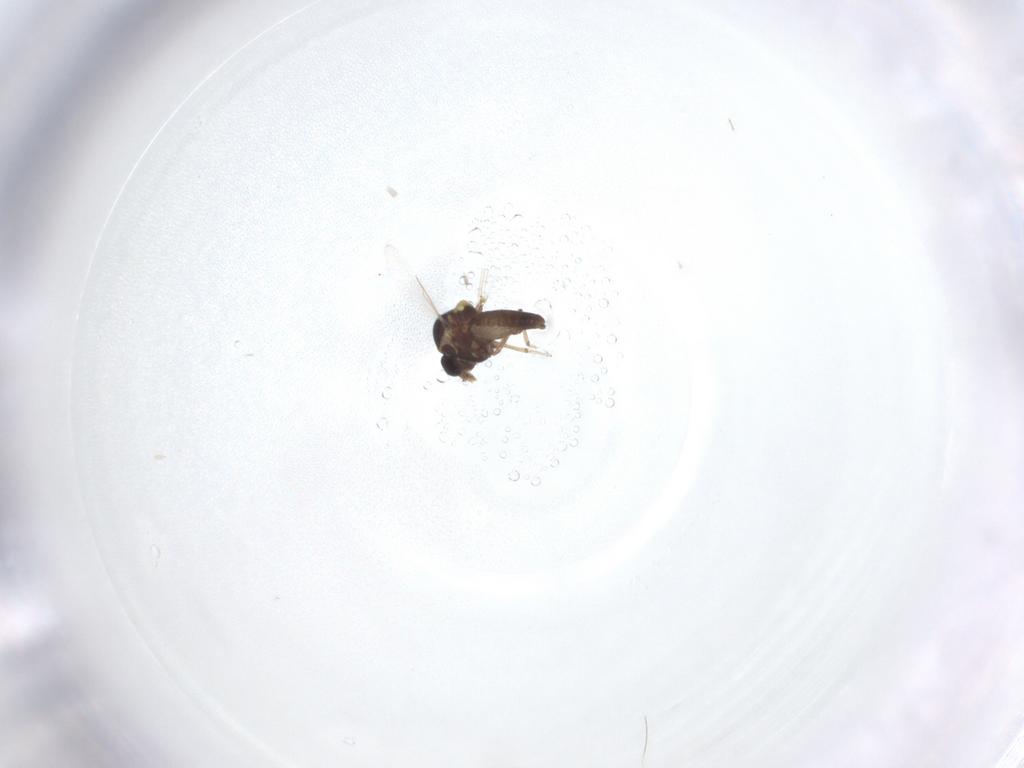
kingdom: Animalia
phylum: Arthropoda
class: Insecta
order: Diptera
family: Ceratopogonidae
